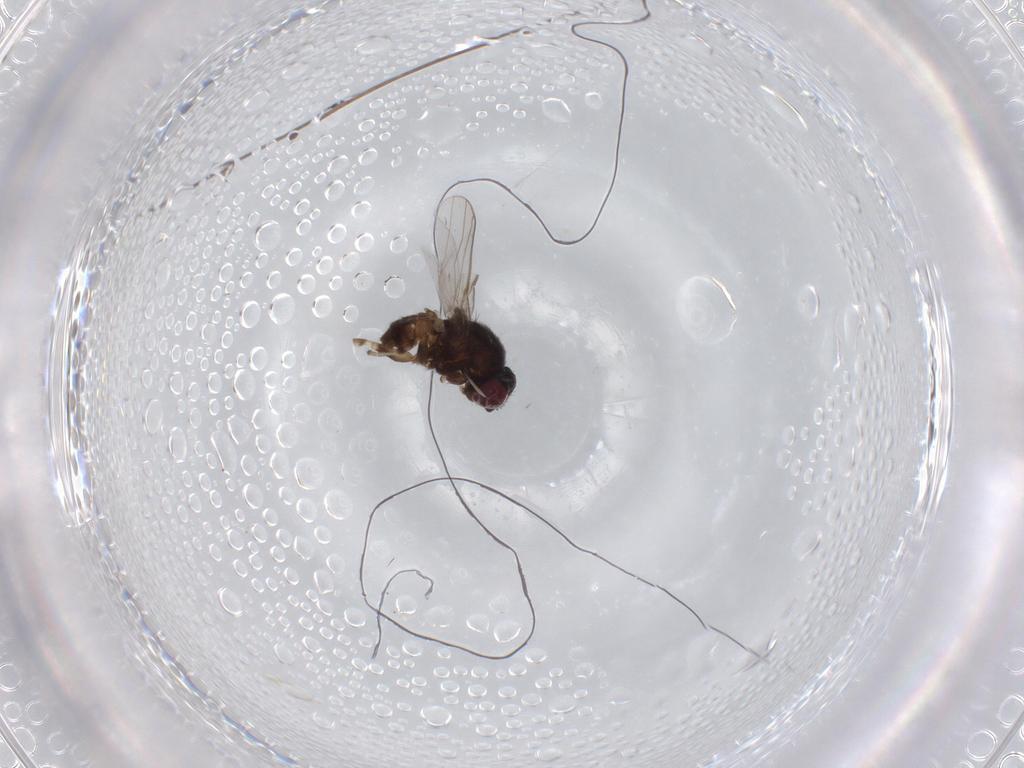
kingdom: Animalia
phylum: Arthropoda
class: Insecta
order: Diptera
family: Chloropidae
